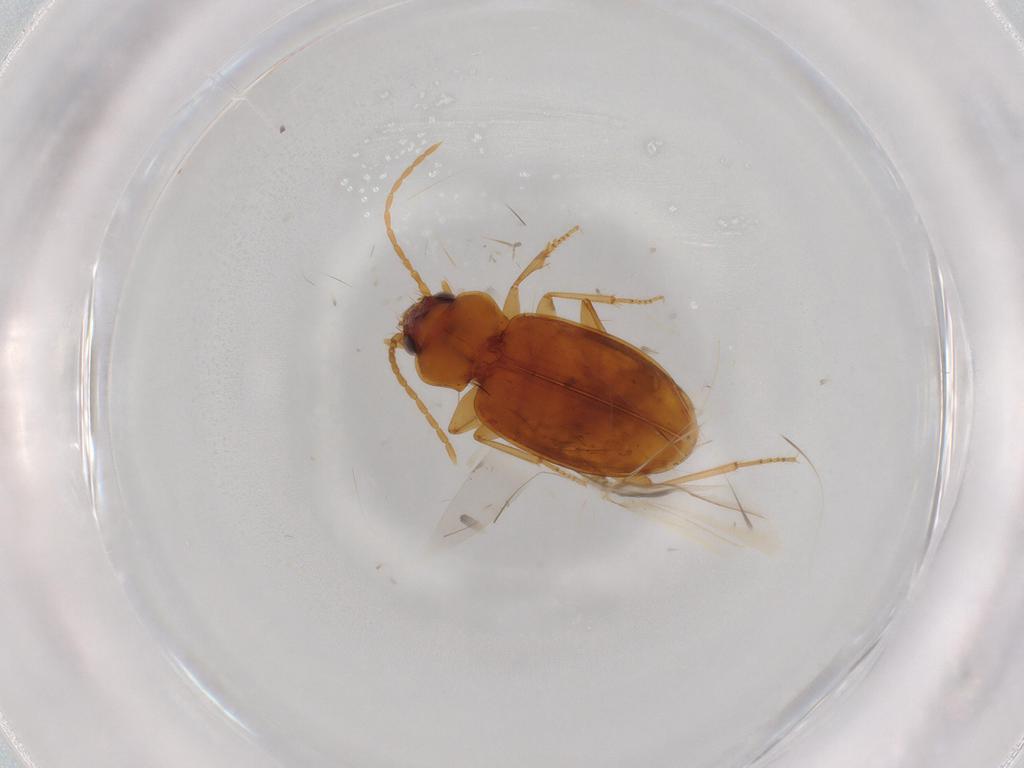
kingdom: Animalia
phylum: Arthropoda
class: Insecta
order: Coleoptera
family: Carabidae
